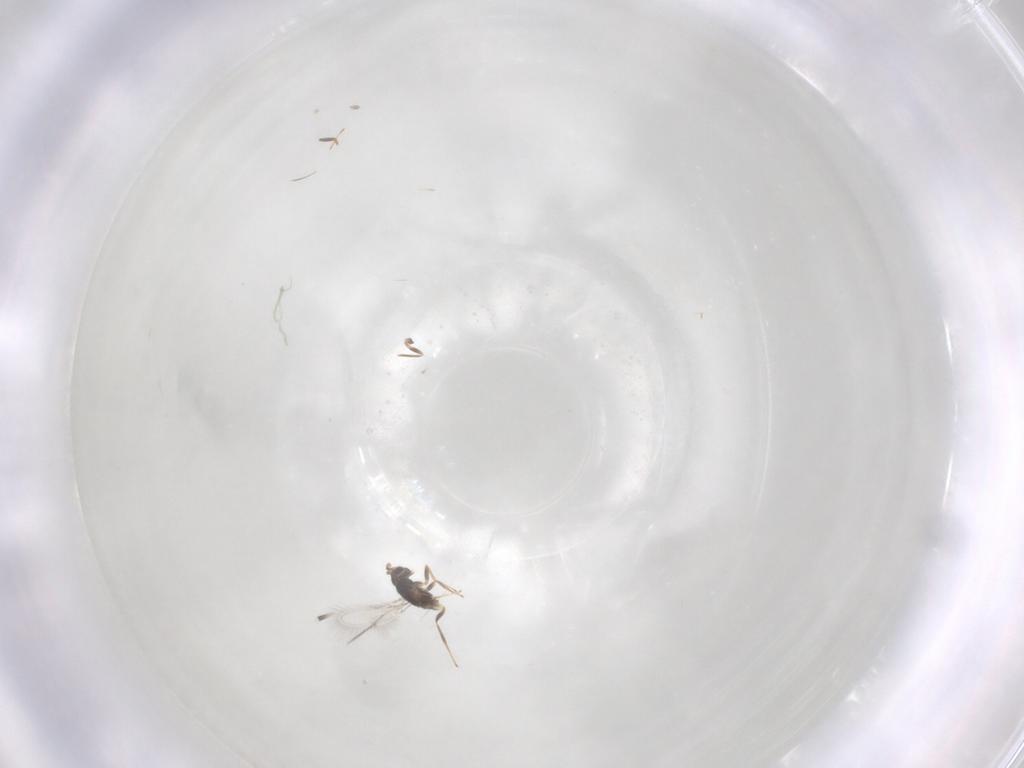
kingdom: Animalia
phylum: Arthropoda
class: Insecta
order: Hymenoptera
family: Mymaridae
